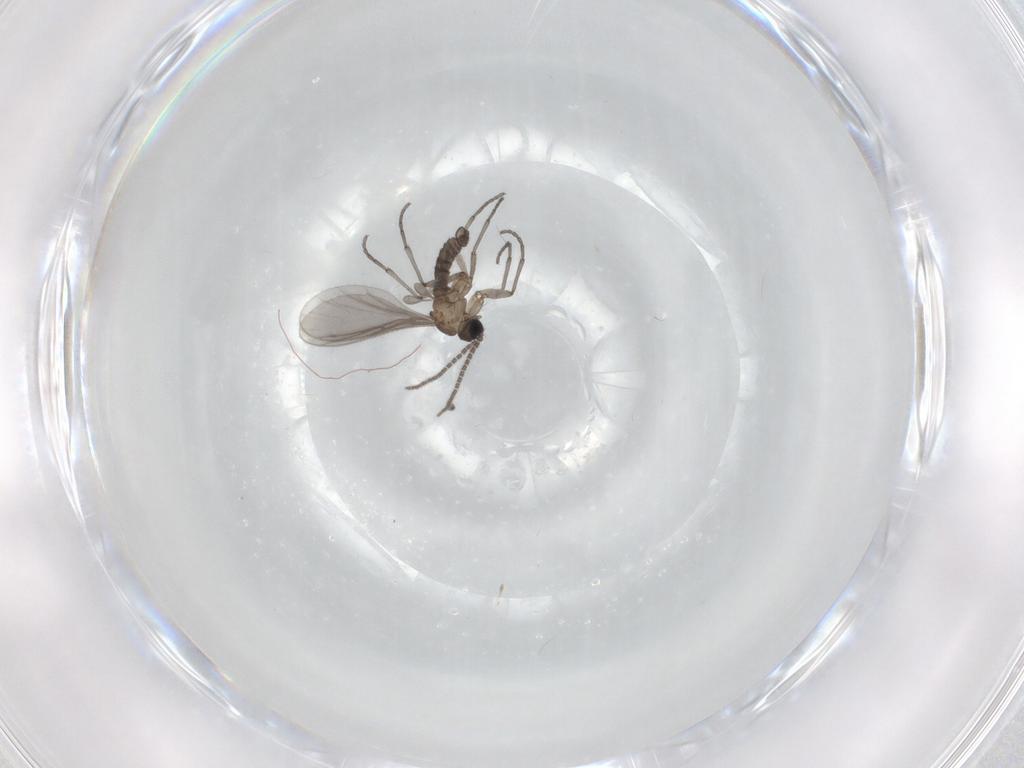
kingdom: Animalia
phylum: Arthropoda
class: Insecta
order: Diptera
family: Sciaridae
